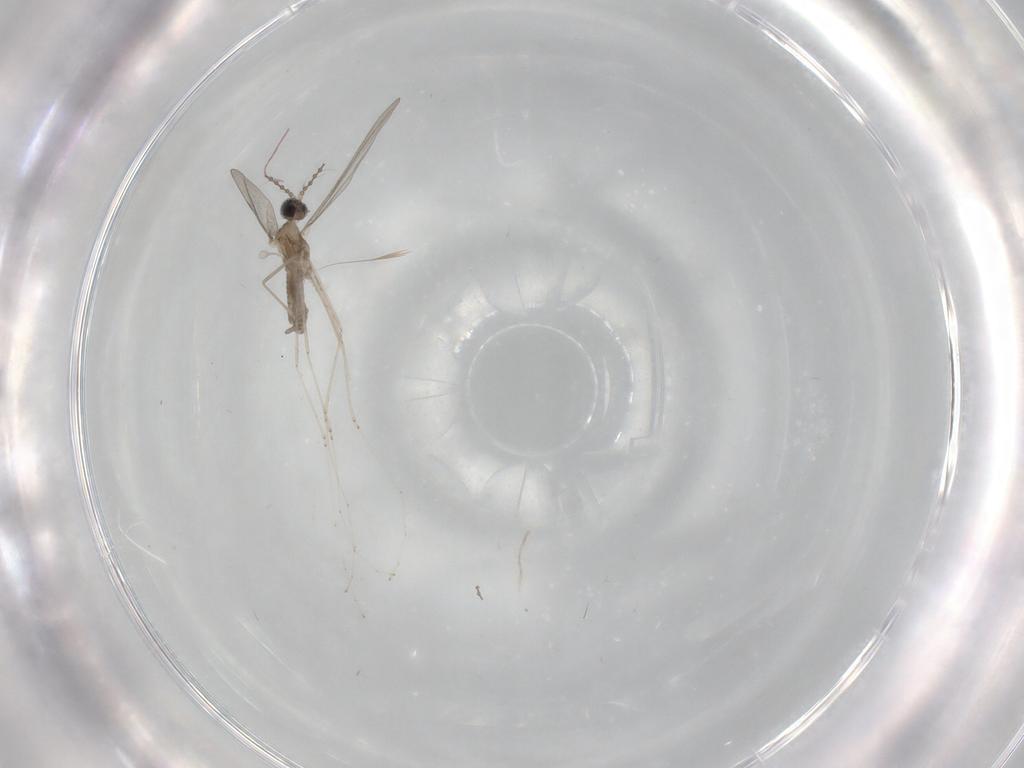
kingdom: Animalia
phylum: Arthropoda
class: Insecta
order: Diptera
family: Cecidomyiidae
